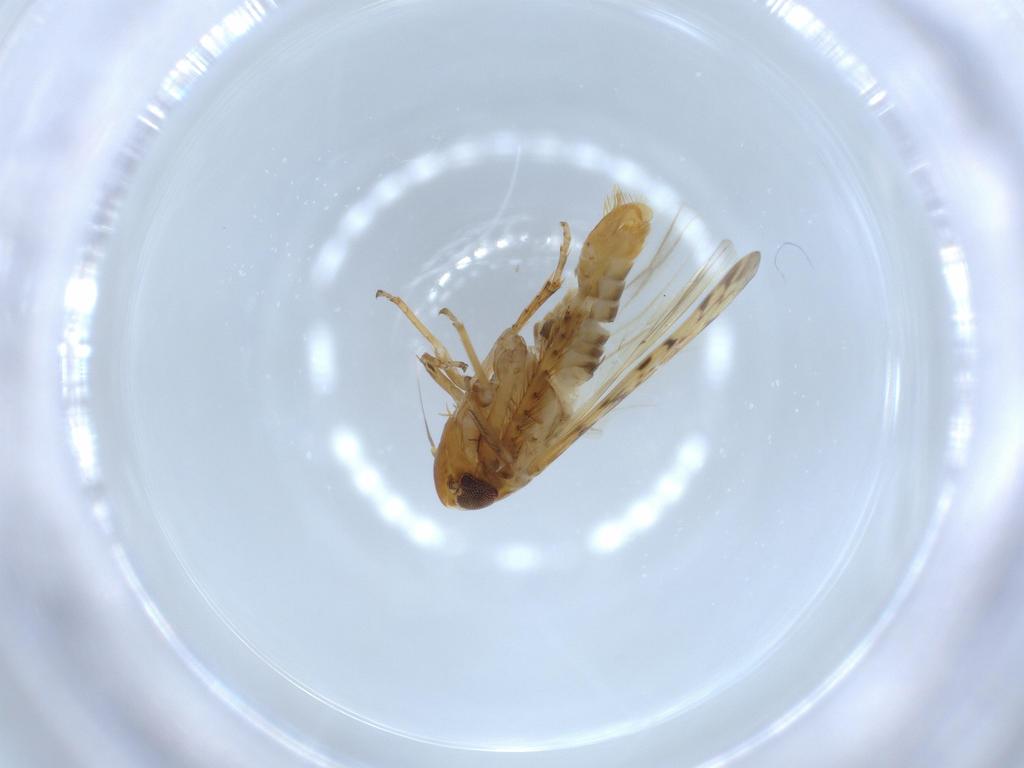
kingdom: Animalia
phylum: Arthropoda
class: Insecta
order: Hemiptera
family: Cicadellidae
